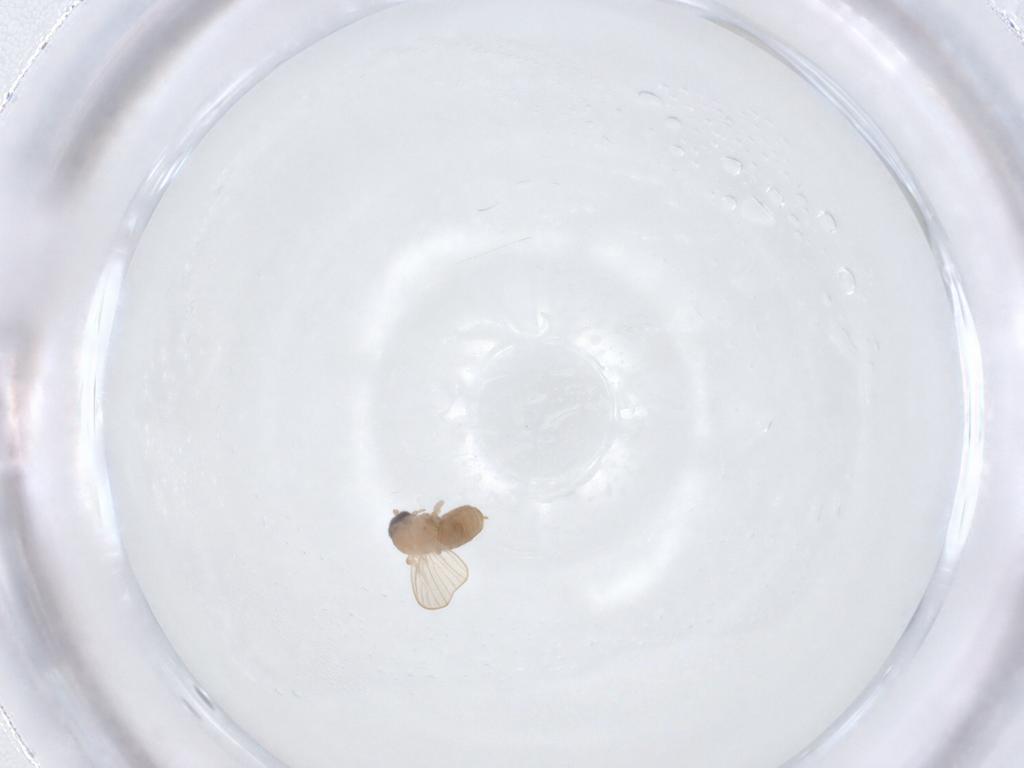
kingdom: Animalia
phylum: Arthropoda
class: Insecta
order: Diptera
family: Psychodidae
